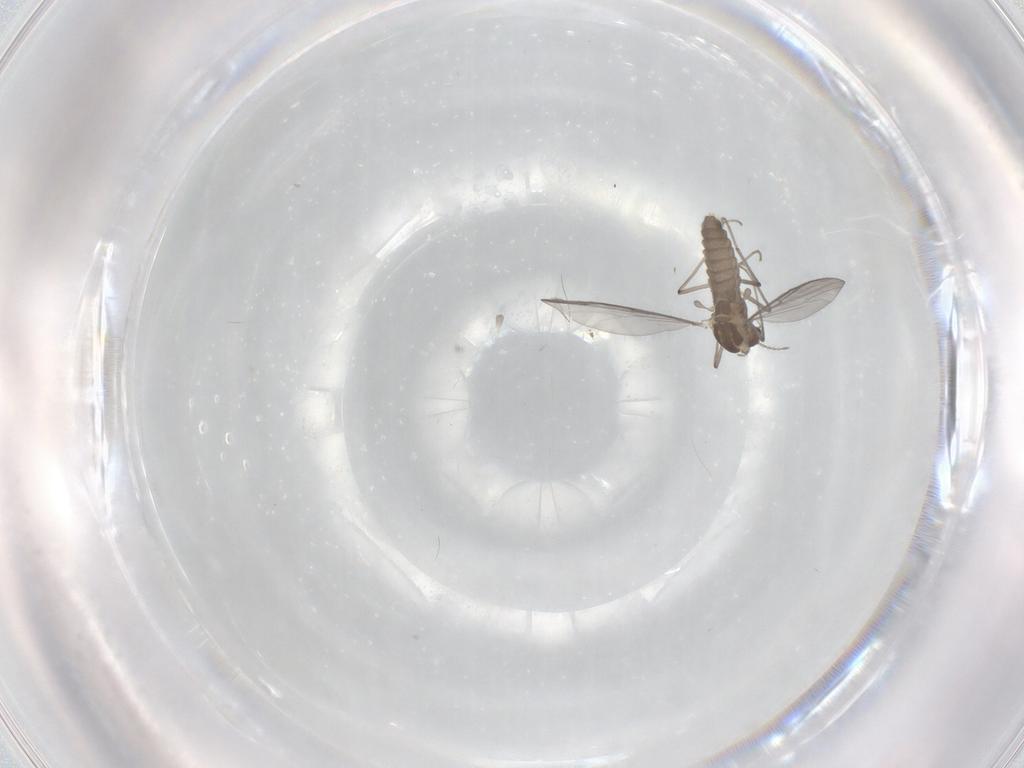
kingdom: Animalia
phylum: Arthropoda
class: Insecta
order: Diptera
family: Chironomidae
